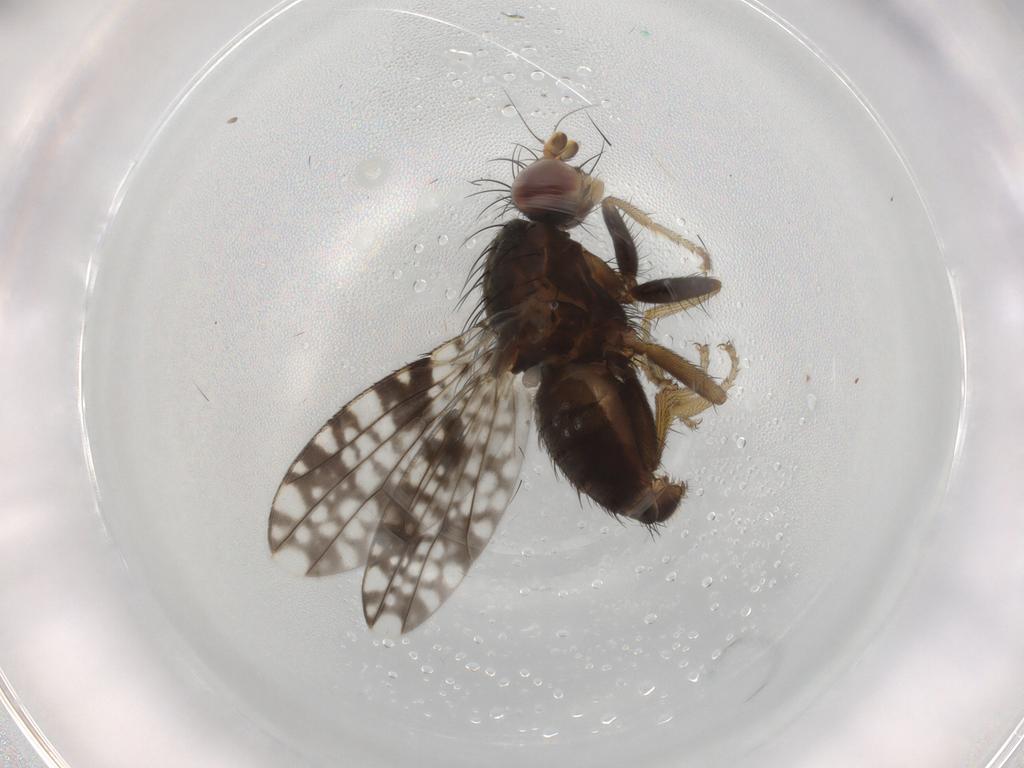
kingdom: Animalia
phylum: Arthropoda
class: Insecta
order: Diptera
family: Tephritidae
